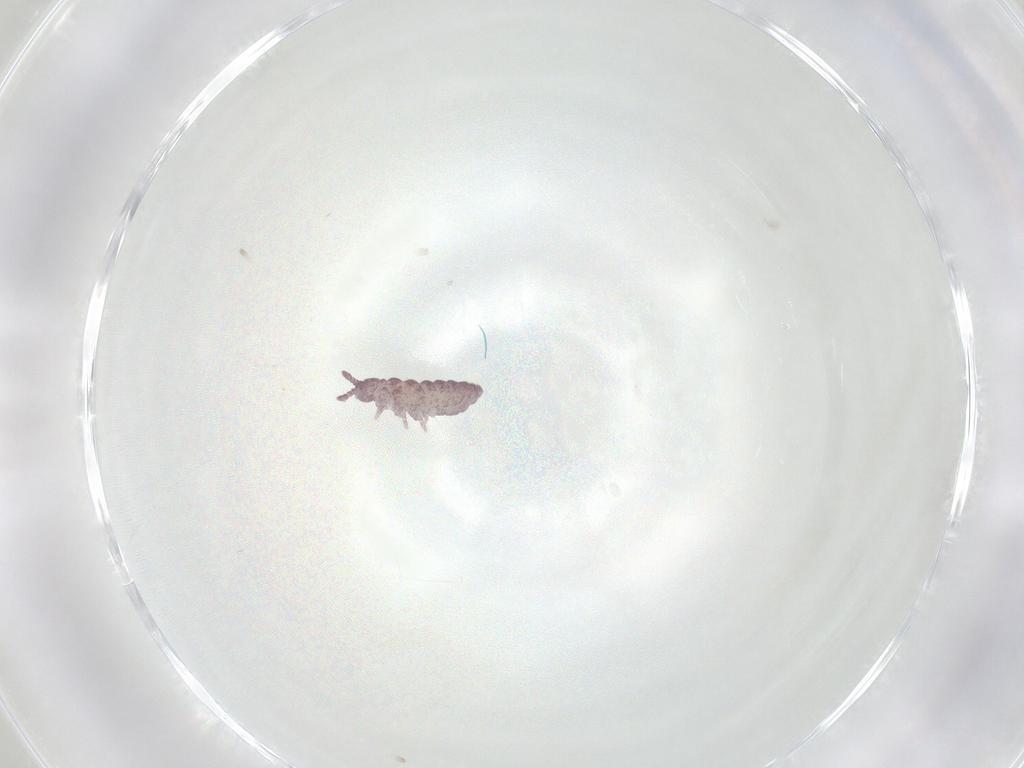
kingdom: Animalia
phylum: Arthropoda
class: Collembola
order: Poduromorpha
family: Hypogastruridae
